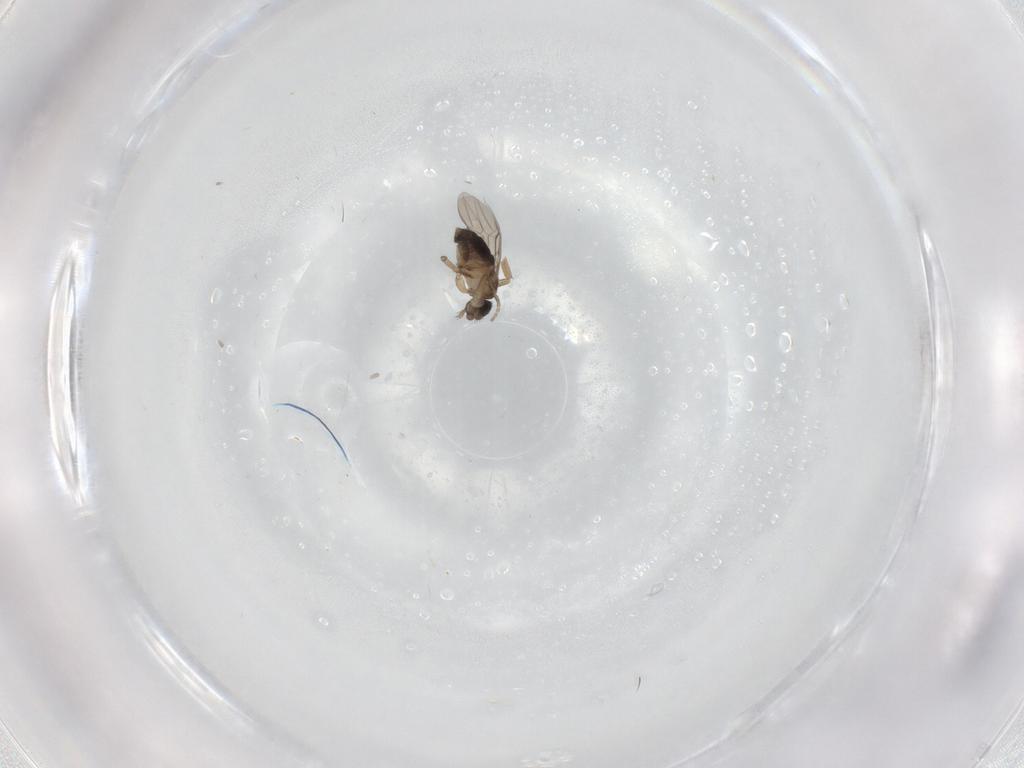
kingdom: Animalia
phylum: Arthropoda
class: Insecta
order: Diptera
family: Phoridae
